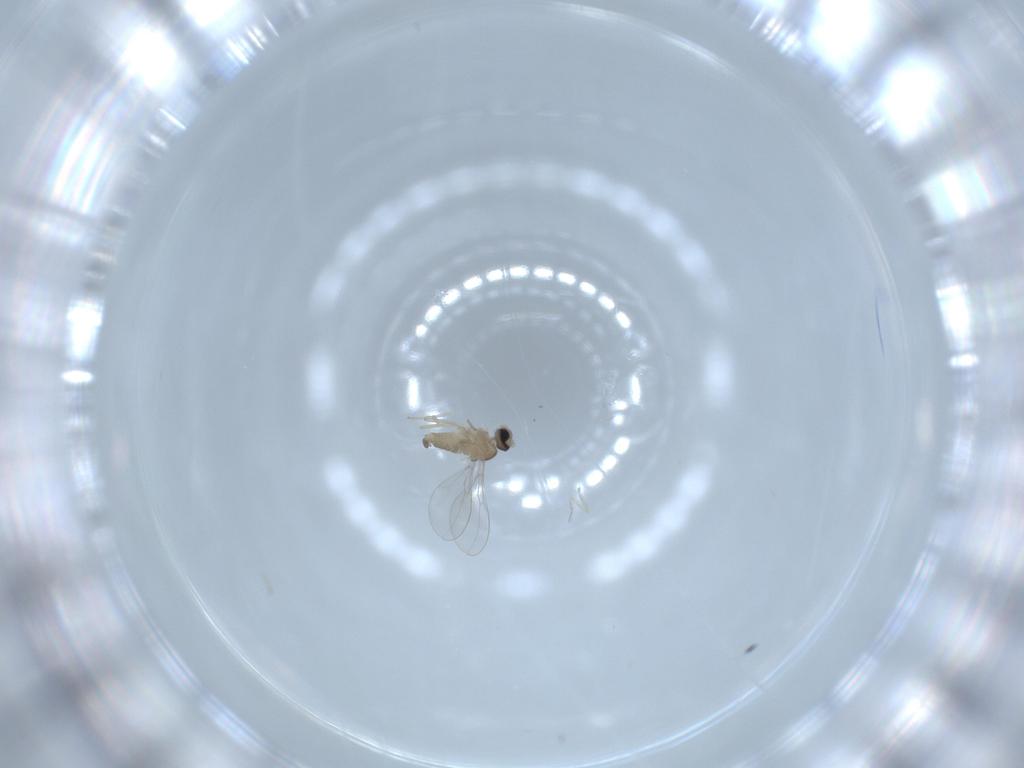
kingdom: Animalia
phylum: Arthropoda
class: Insecta
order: Diptera
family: Cecidomyiidae
